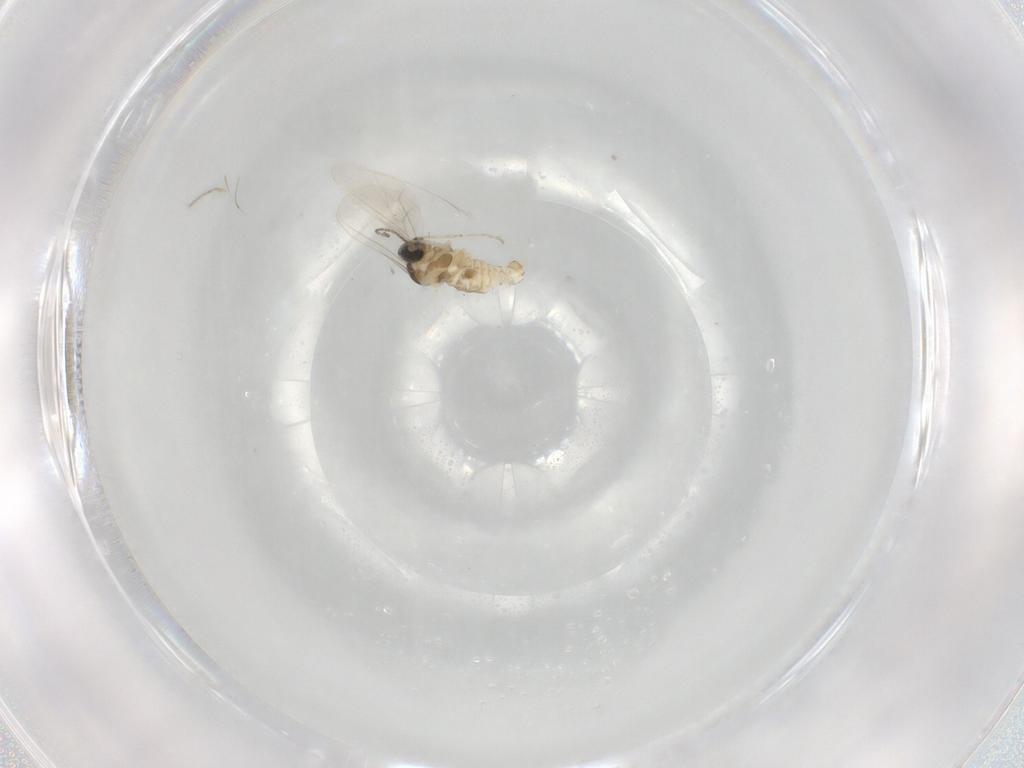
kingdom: Animalia
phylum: Arthropoda
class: Insecta
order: Diptera
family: Cecidomyiidae
